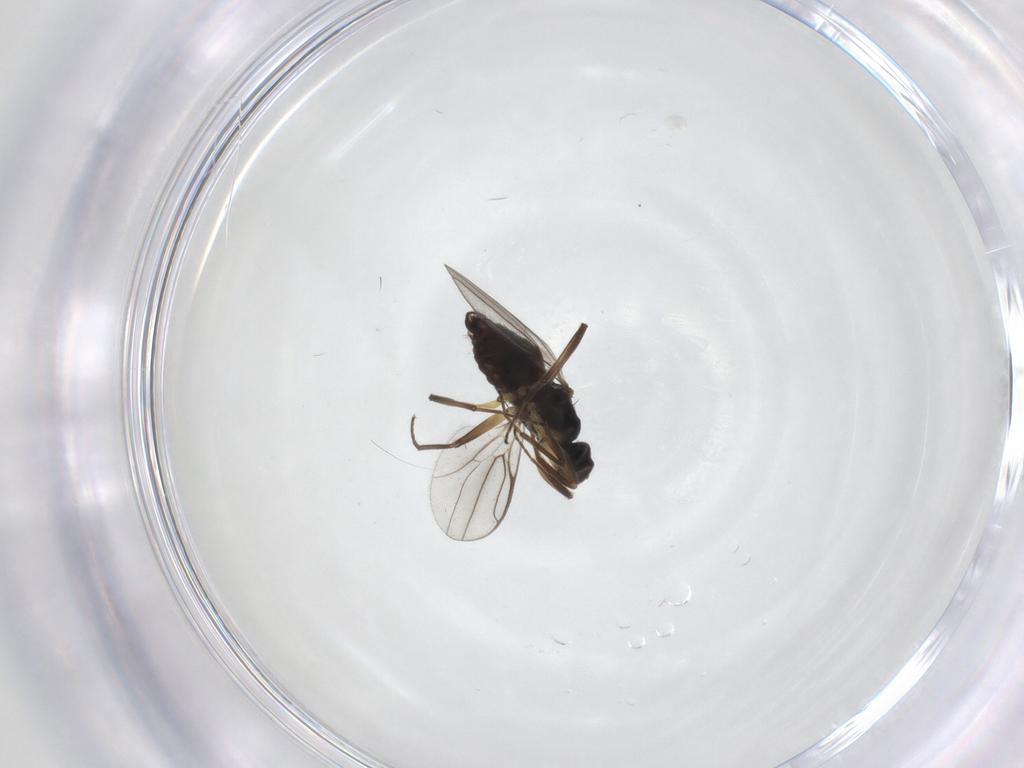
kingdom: Animalia
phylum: Arthropoda
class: Insecta
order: Diptera
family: Hybotidae
